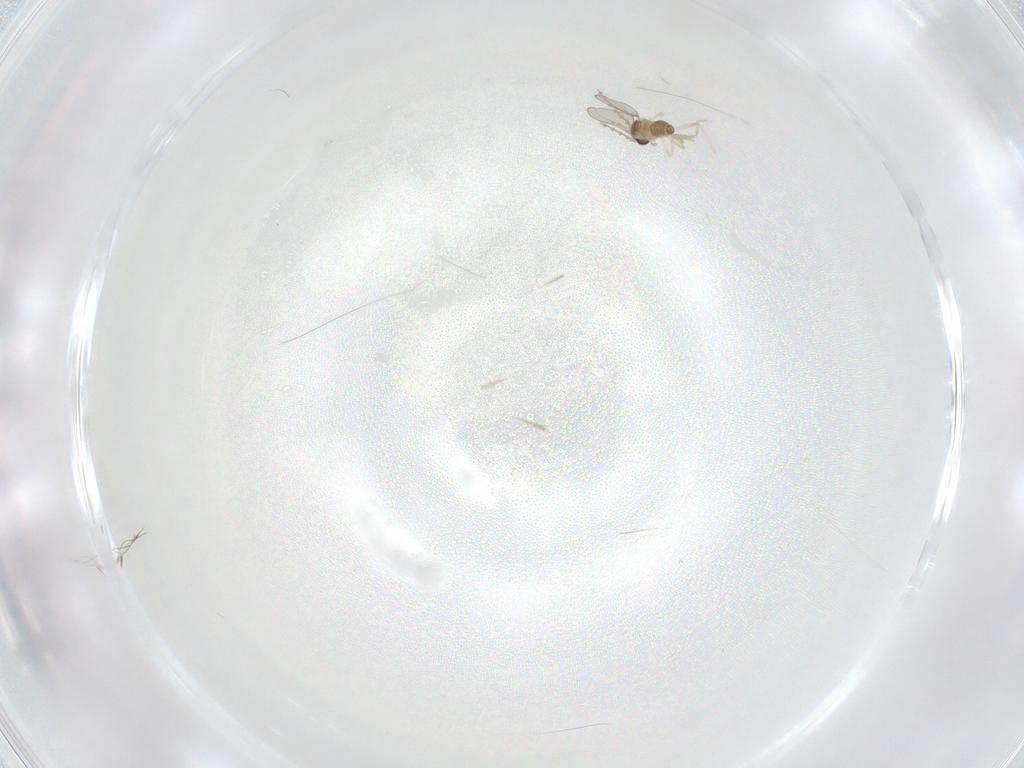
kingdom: Animalia
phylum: Arthropoda
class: Insecta
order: Diptera
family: Cecidomyiidae
